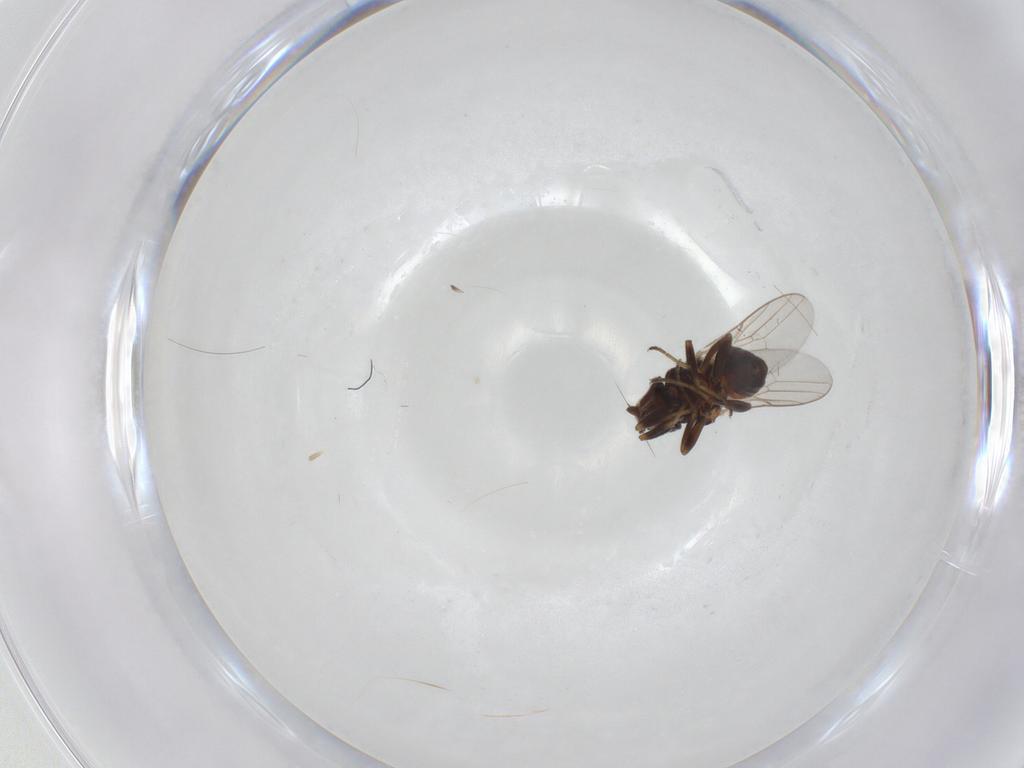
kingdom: Animalia
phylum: Arthropoda
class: Insecta
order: Diptera
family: Chloropidae
